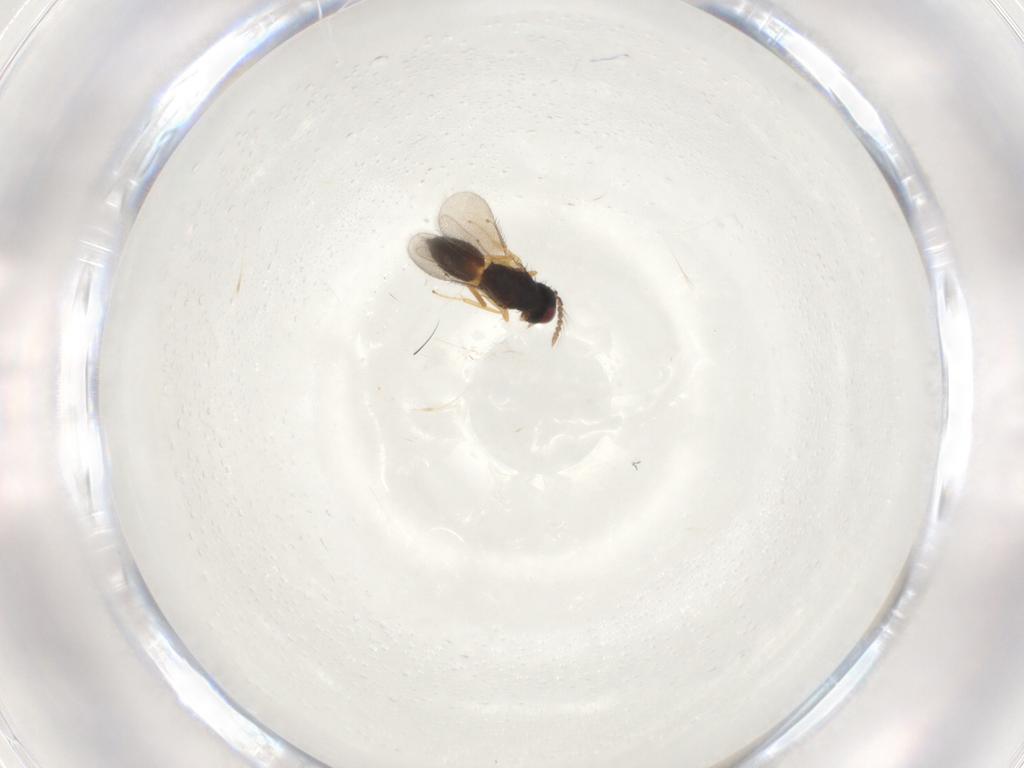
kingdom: Animalia
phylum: Arthropoda
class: Insecta
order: Hymenoptera
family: Eulophidae
